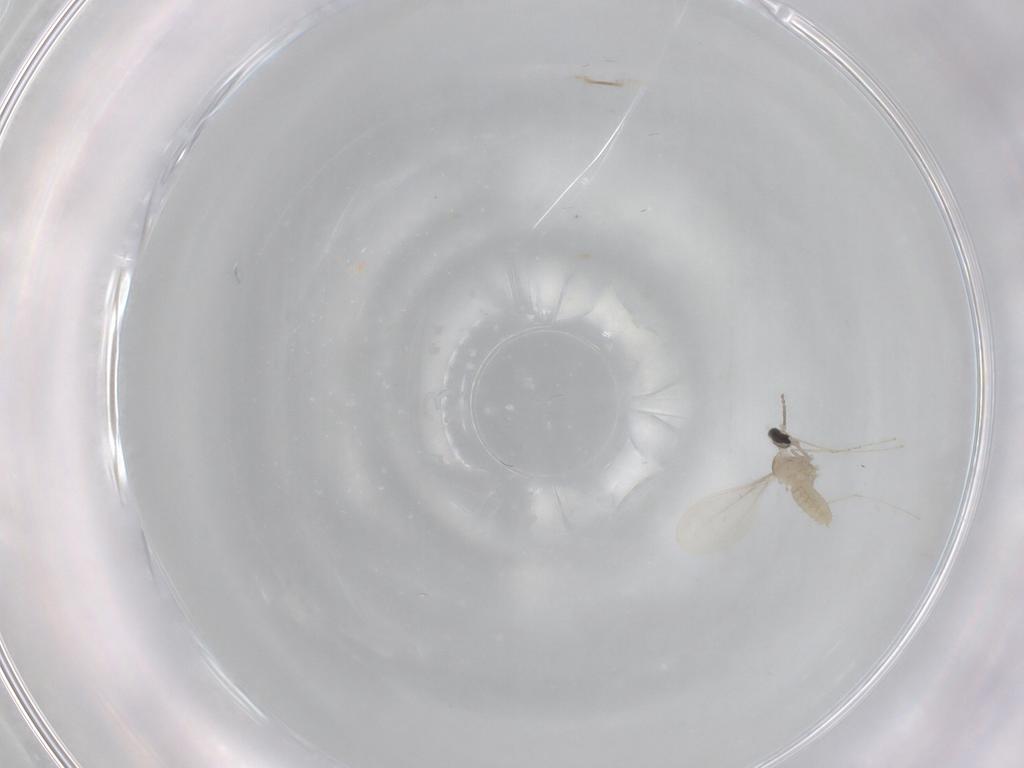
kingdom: Animalia
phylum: Arthropoda
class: Insecta
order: Diptera
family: Cecidomyiidae
